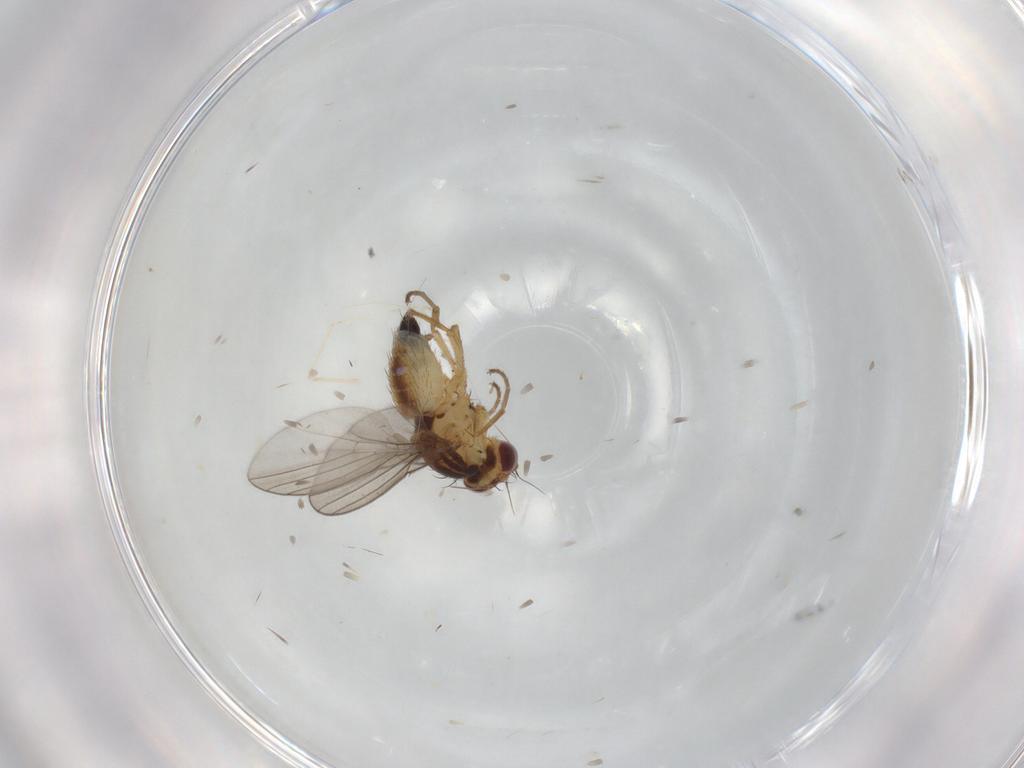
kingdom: Animalia
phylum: Arthropoda
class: Insecta
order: Diptera
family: Agromyzidae
